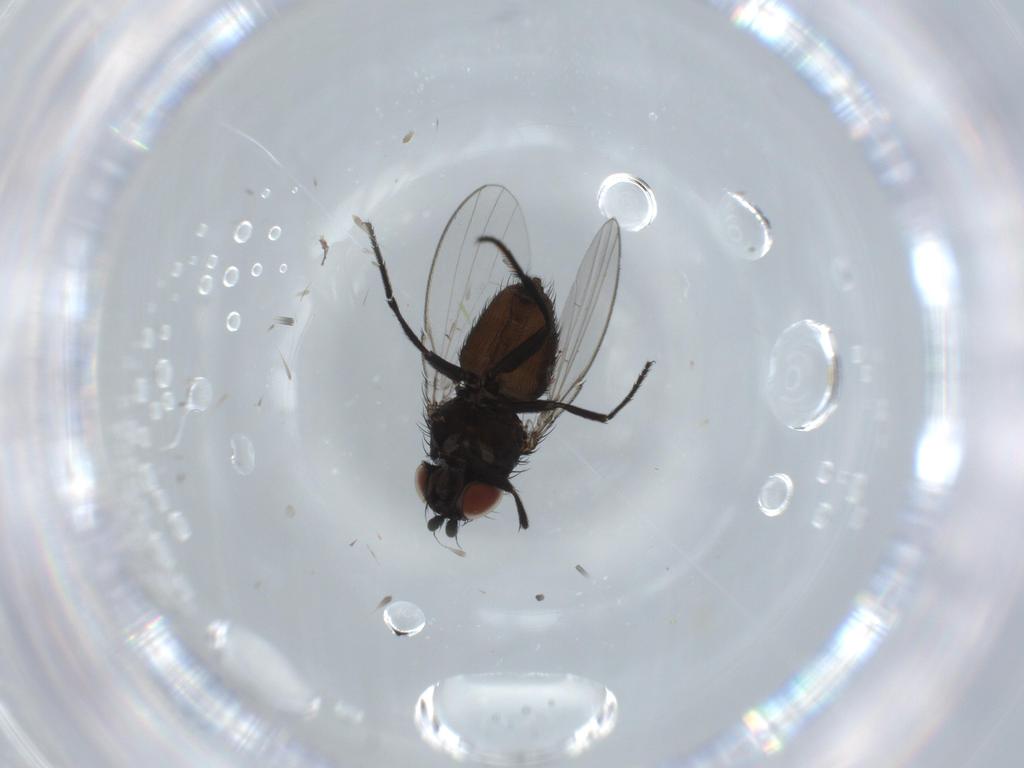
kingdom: Animalia
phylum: Arthropoda
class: Insecta
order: Diptera
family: Milichiidae
